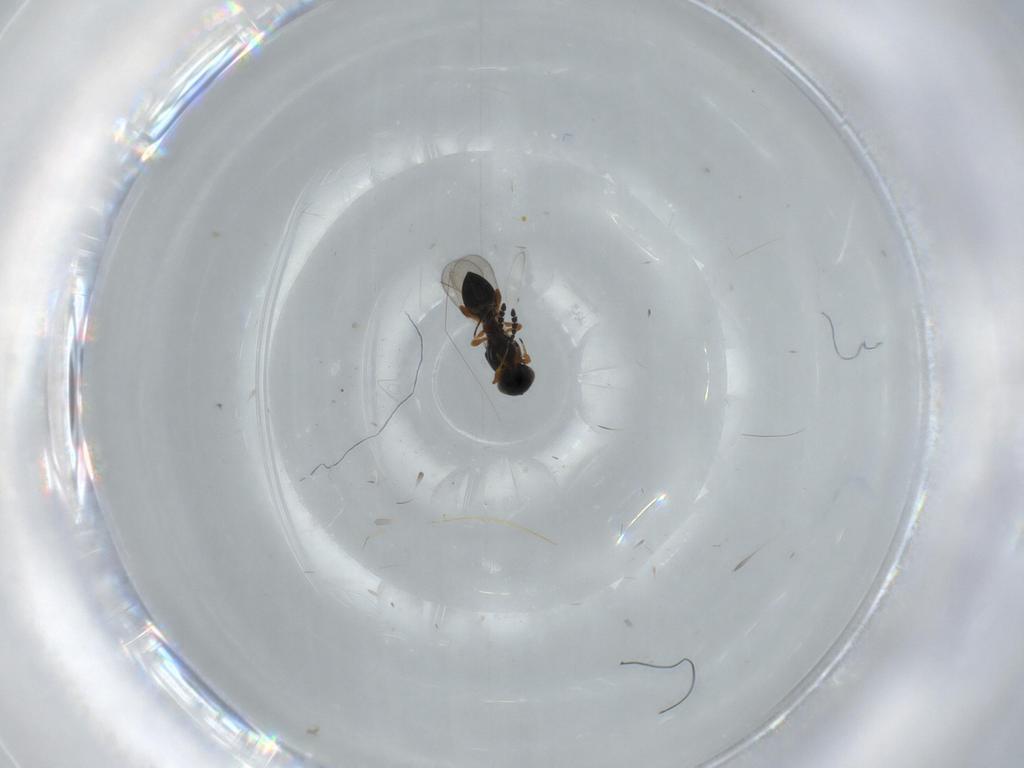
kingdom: Animalia
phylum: Arthropoda
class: Insecta
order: Hymenoptera
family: Platygastridae
